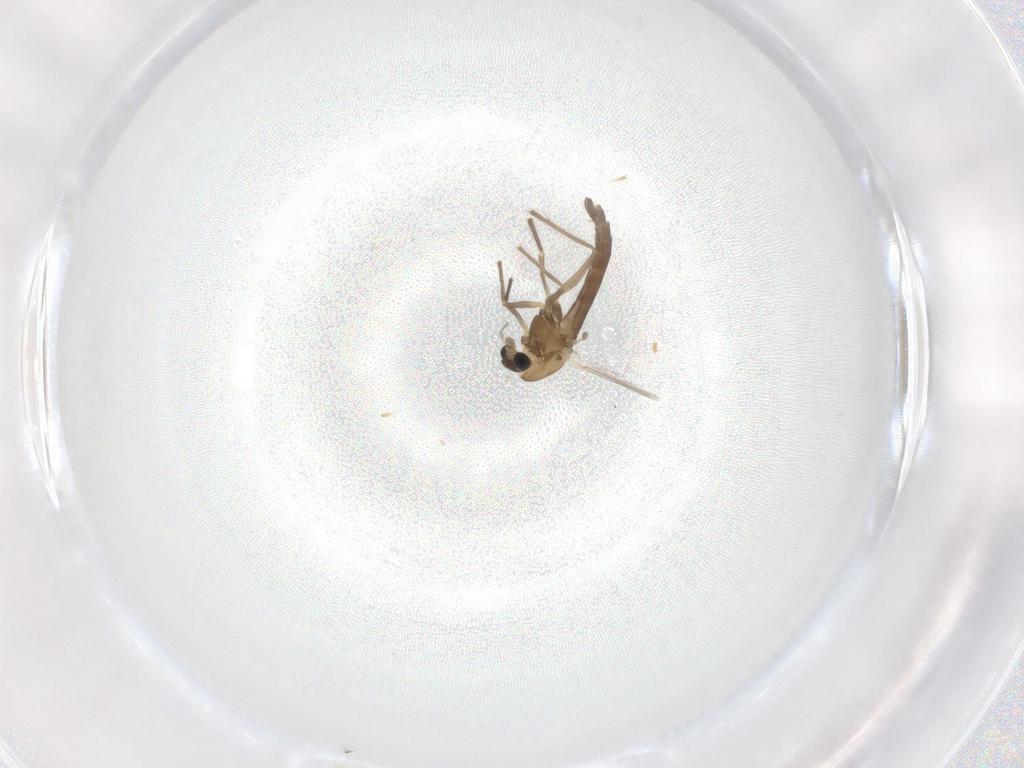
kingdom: Animalia
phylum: Arthropoda
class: Insecta
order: Diptera
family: Chironomidae
